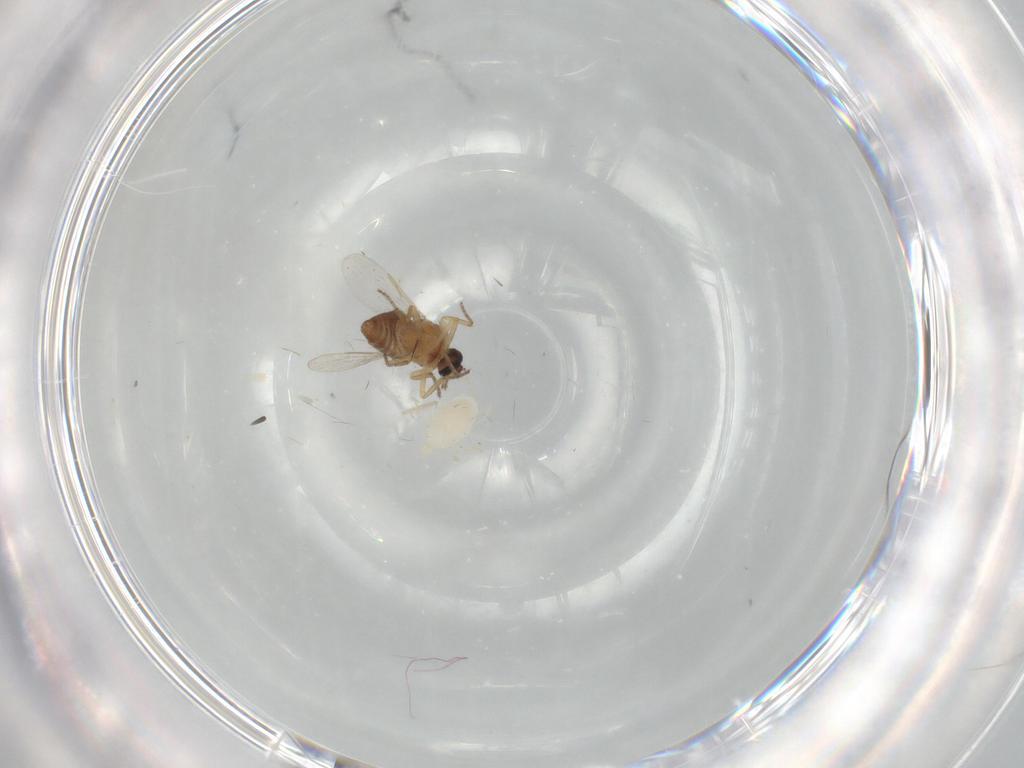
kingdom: Animalia
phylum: Arthropoda
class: Insecta
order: Diptera
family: Ceratopogonidae
